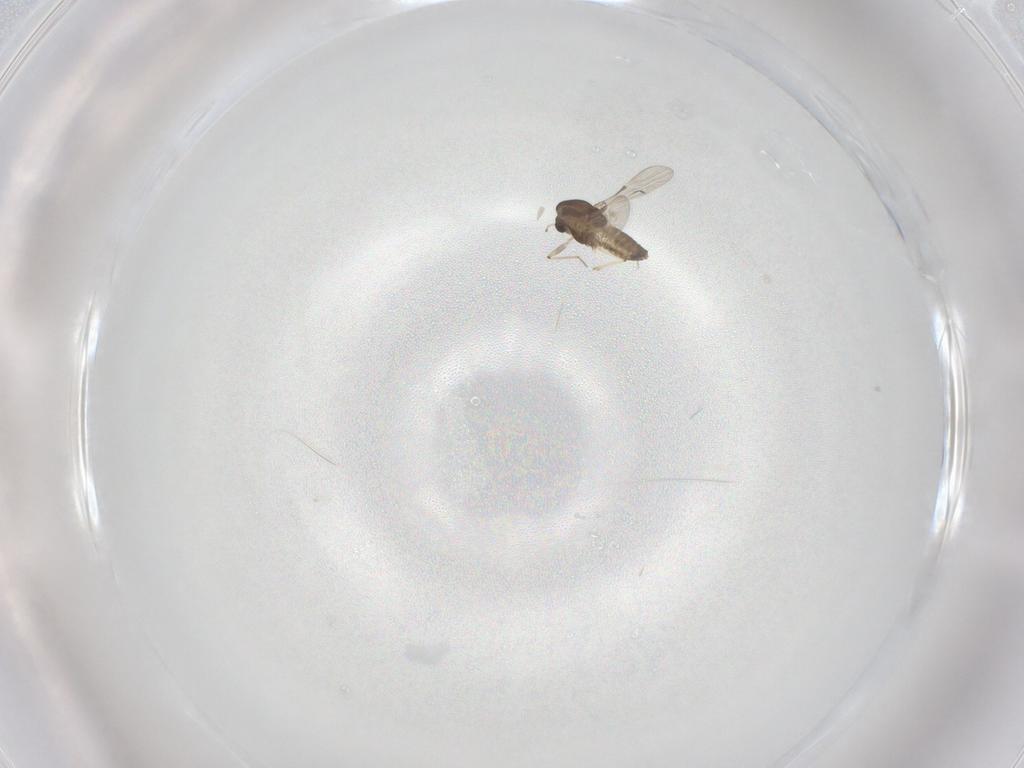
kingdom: Animalia
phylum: Arthropoda
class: Insecta
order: Diptera
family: Chironomidae
